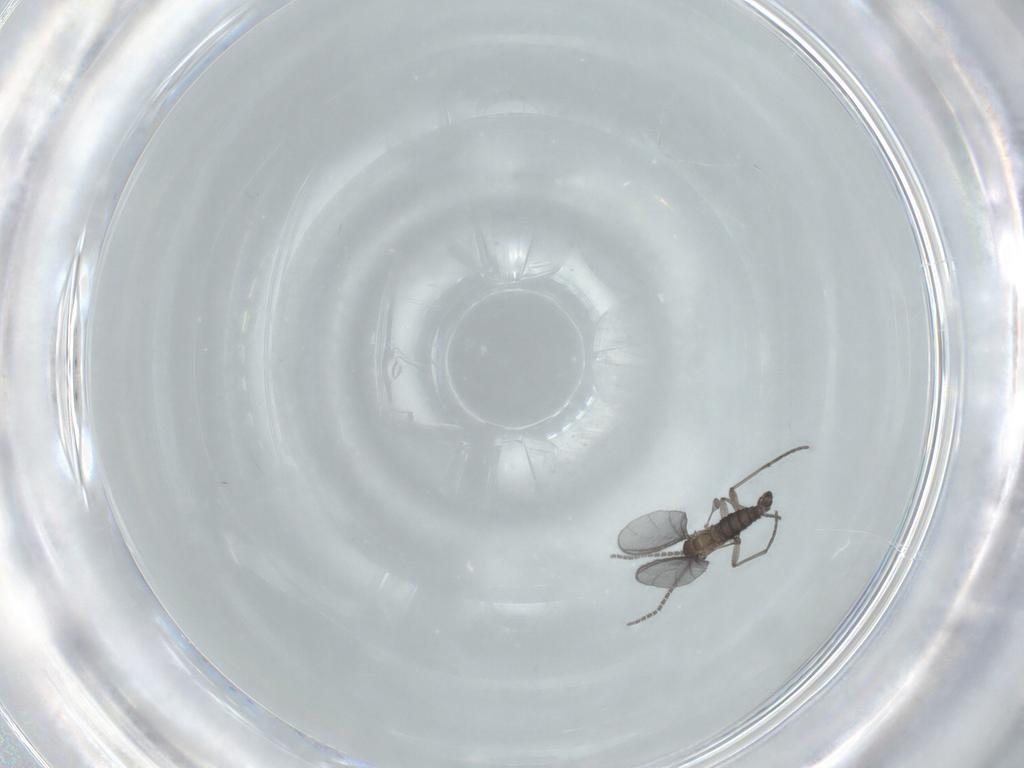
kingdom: Animalia
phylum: Arthropoda
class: Insecta
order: Diptera
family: Sciaridae
